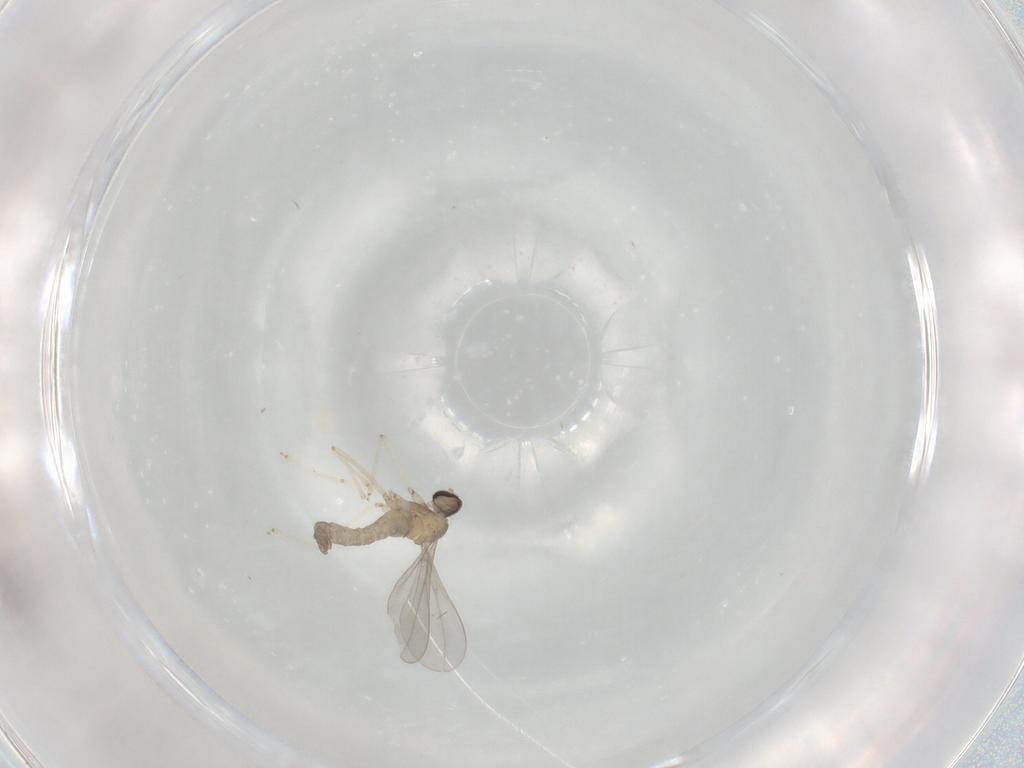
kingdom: Animalia
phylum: Arthropoda
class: Insecta
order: Diptera
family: Cecidomyiidae
